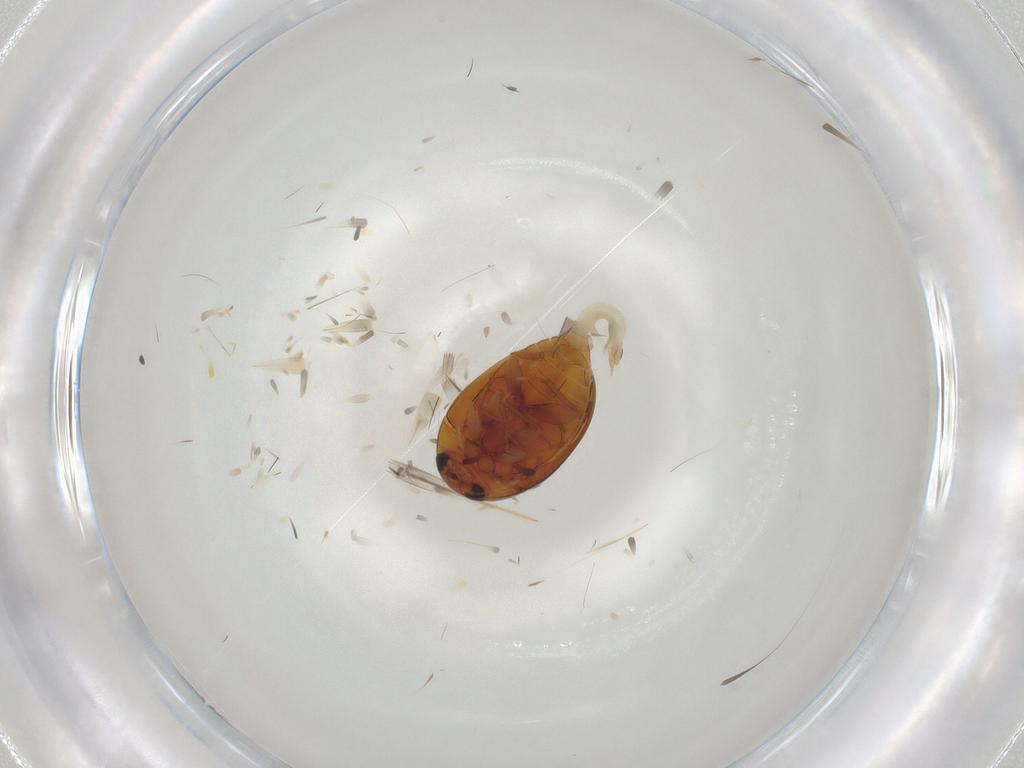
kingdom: Animalia
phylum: Arthropoda
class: Insecta
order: Coleoptera
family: Phalacridae
